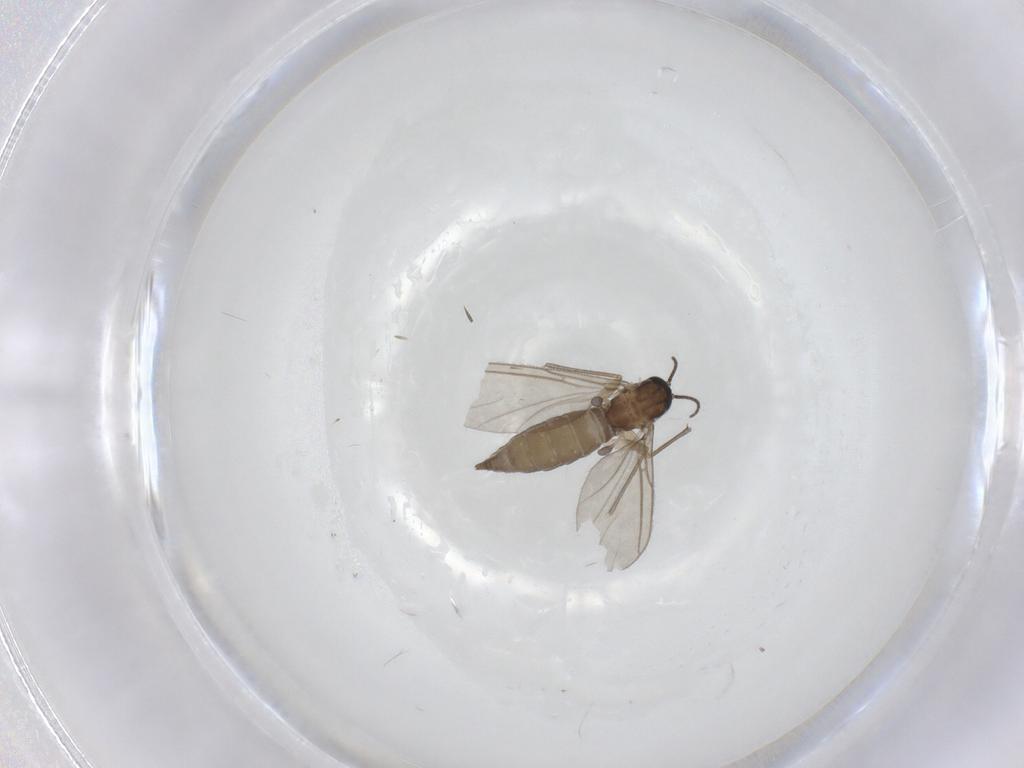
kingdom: Animalia
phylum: Arthropoda
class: Insecta
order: Diptera
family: Sciaridae
